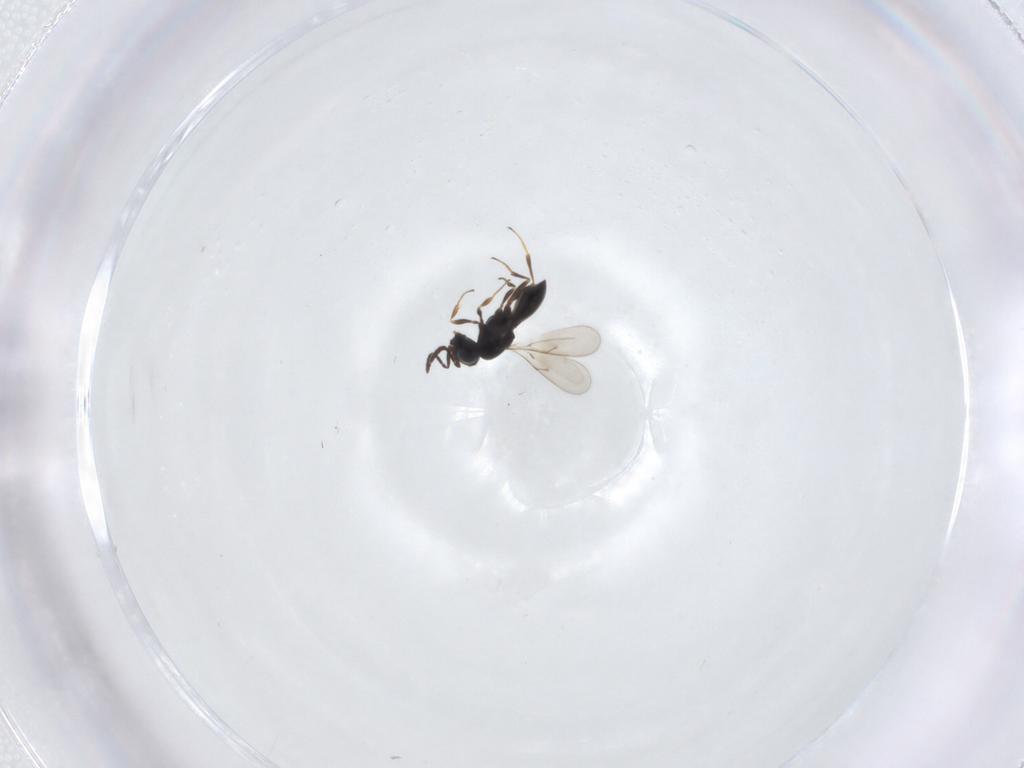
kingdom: Animalia
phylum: Arthropoda
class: Insecta
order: Hymenoptera
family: Scelionidae
